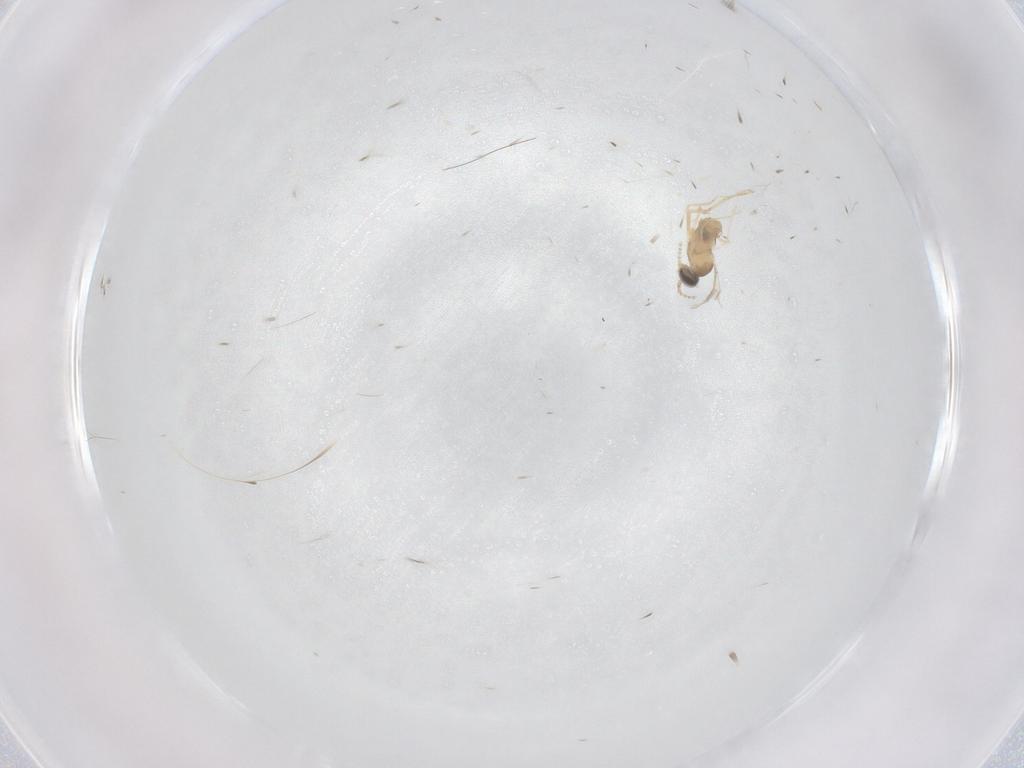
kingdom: Animalia
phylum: Arthropoda
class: Insecta
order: Diptera
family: Cecidomyiidae
